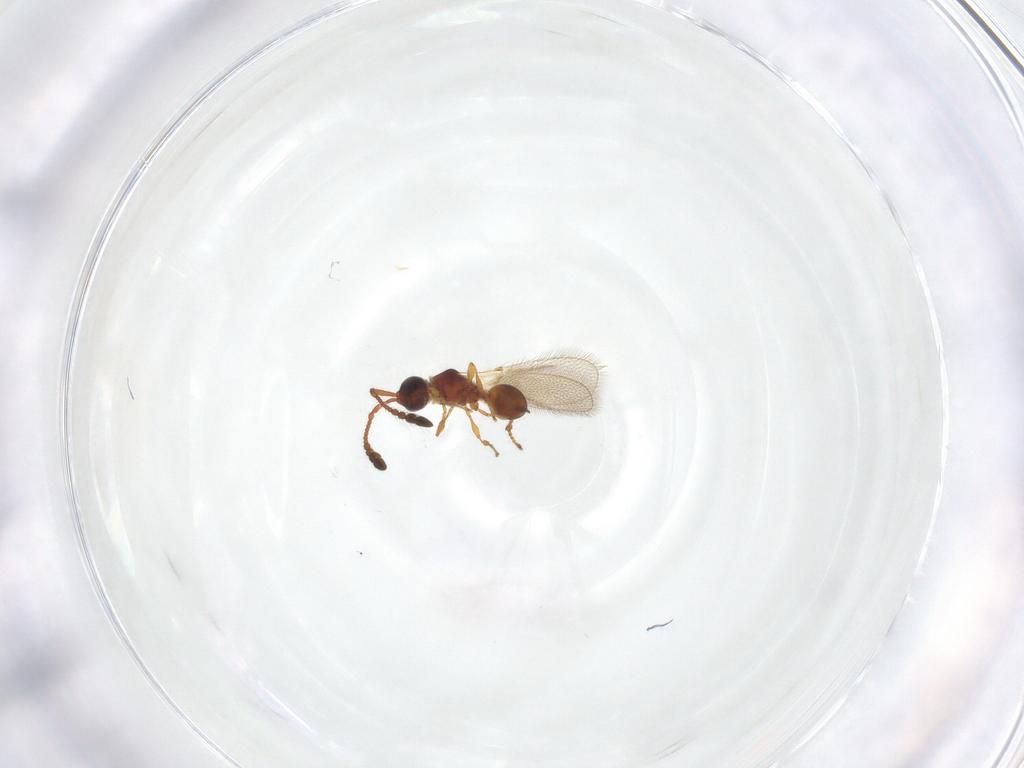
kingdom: Animalia
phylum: Arthropoda
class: Insecta
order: Hymenoptera
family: Diapriidae
